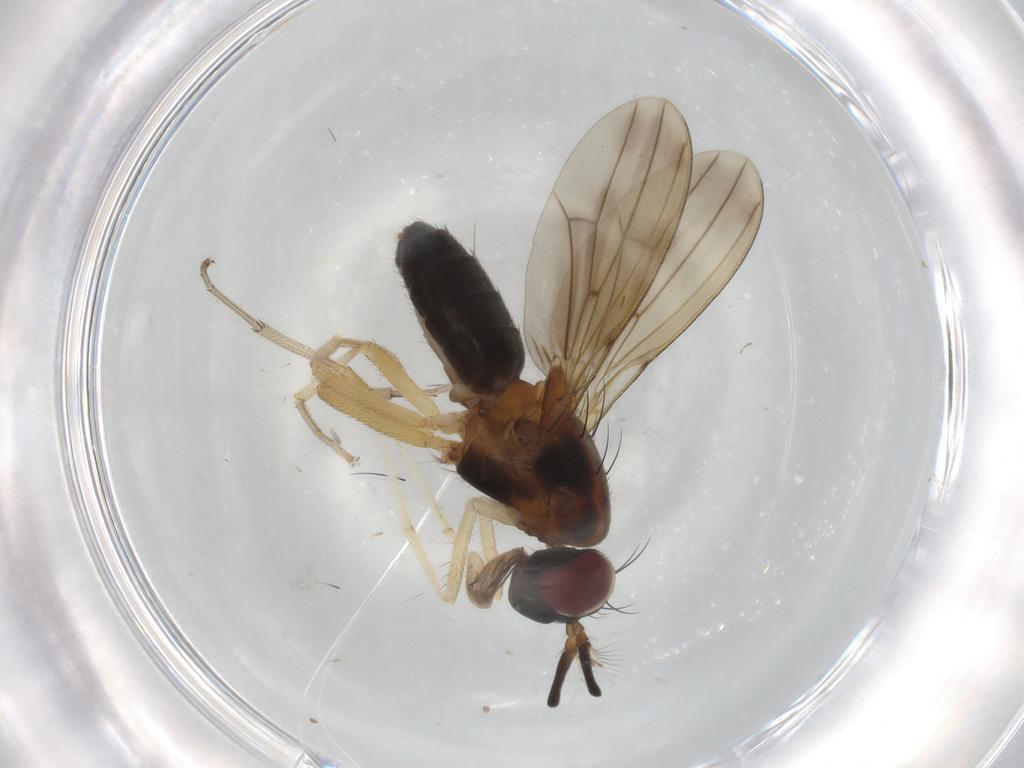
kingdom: Animalia
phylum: Arthropoda
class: Insecta
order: Diptera
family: Lauxaniidae
